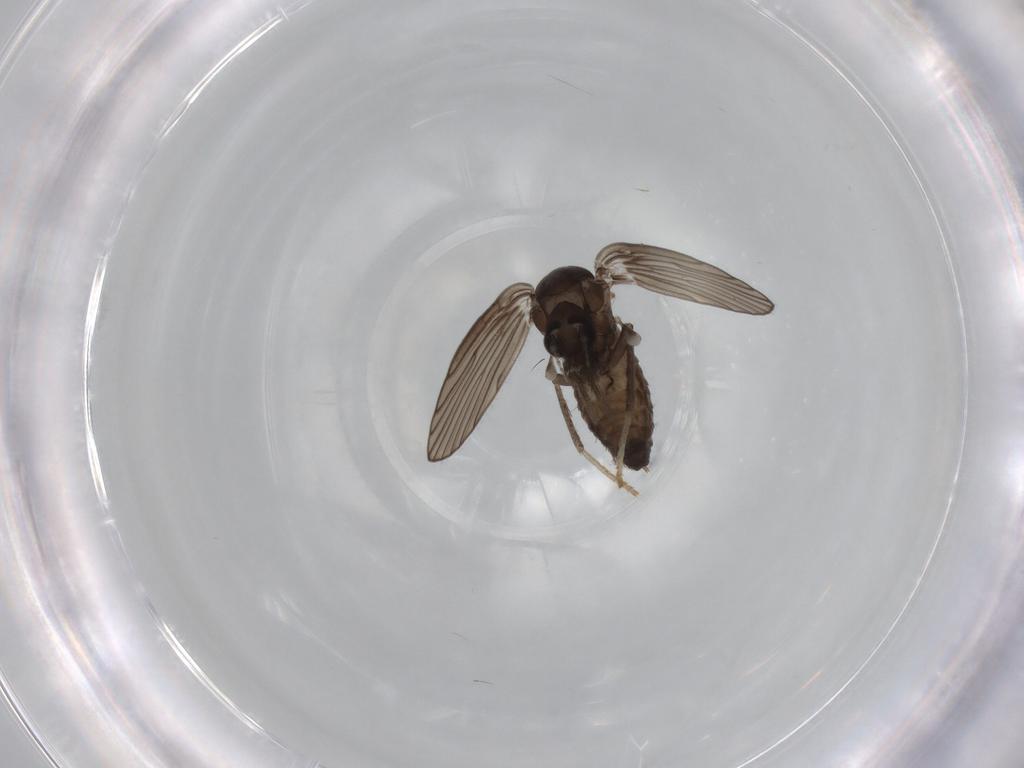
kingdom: Animalia
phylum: Arthropoda
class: Insecta
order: Diptera
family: Psychodidae
